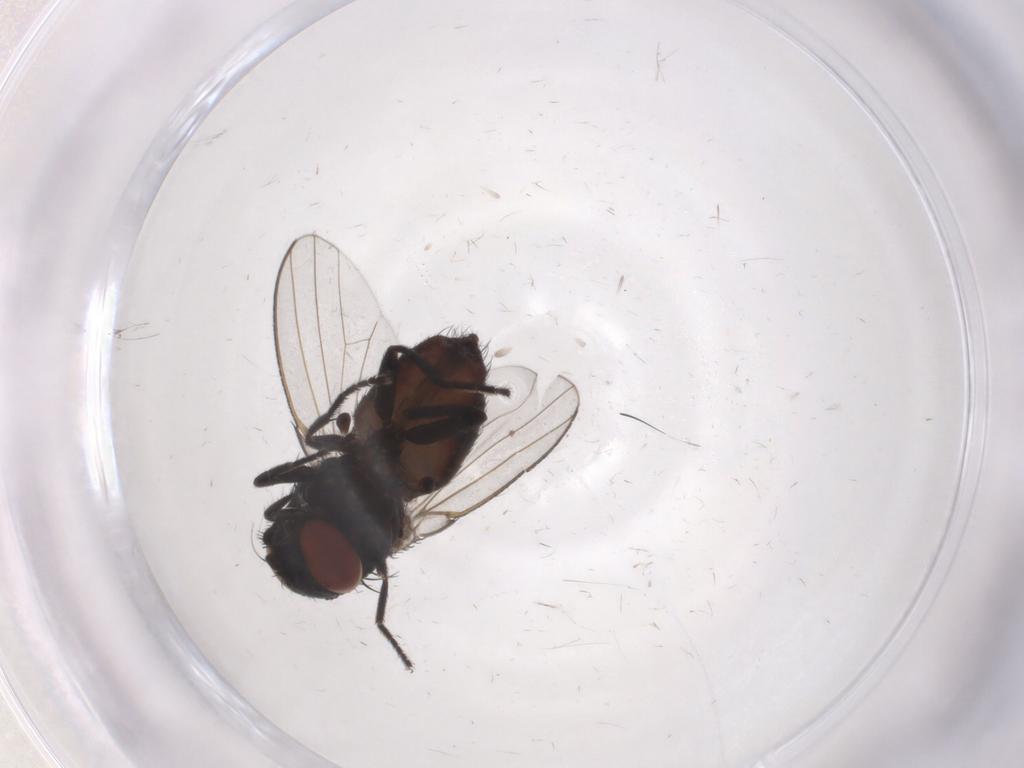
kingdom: Animalia
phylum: Arthropoda
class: Insecta
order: Diptera
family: Milichiidae
